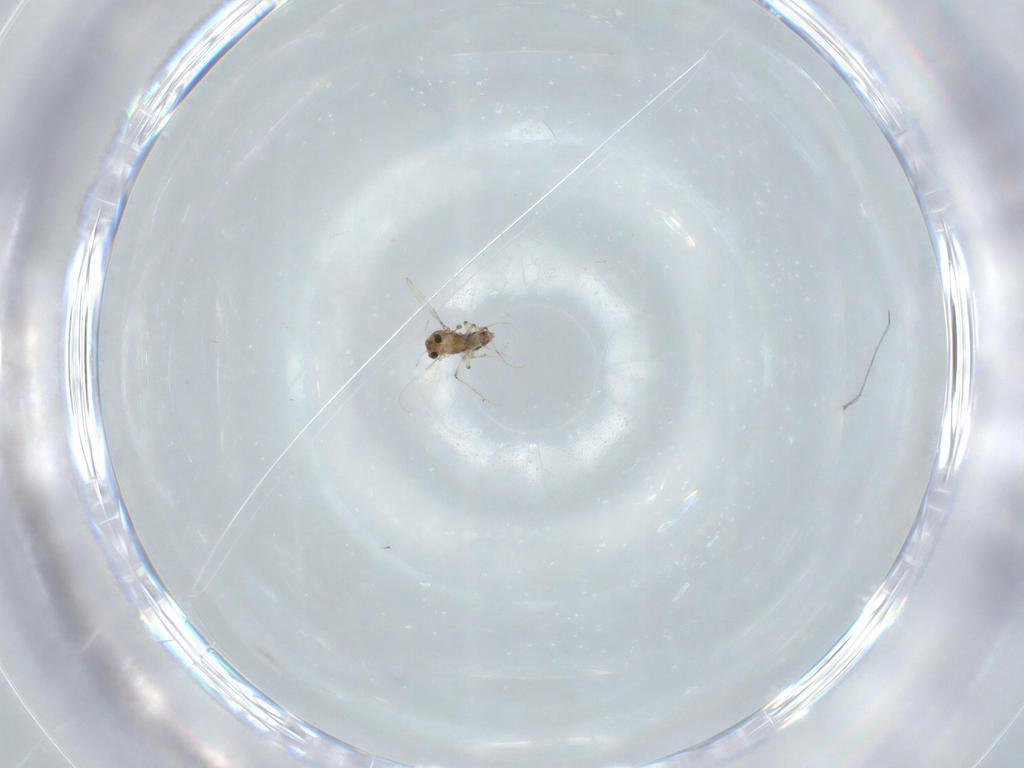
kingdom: Animalia
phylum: Arthropoda
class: Insecta
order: Diptera
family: Chironomidae
